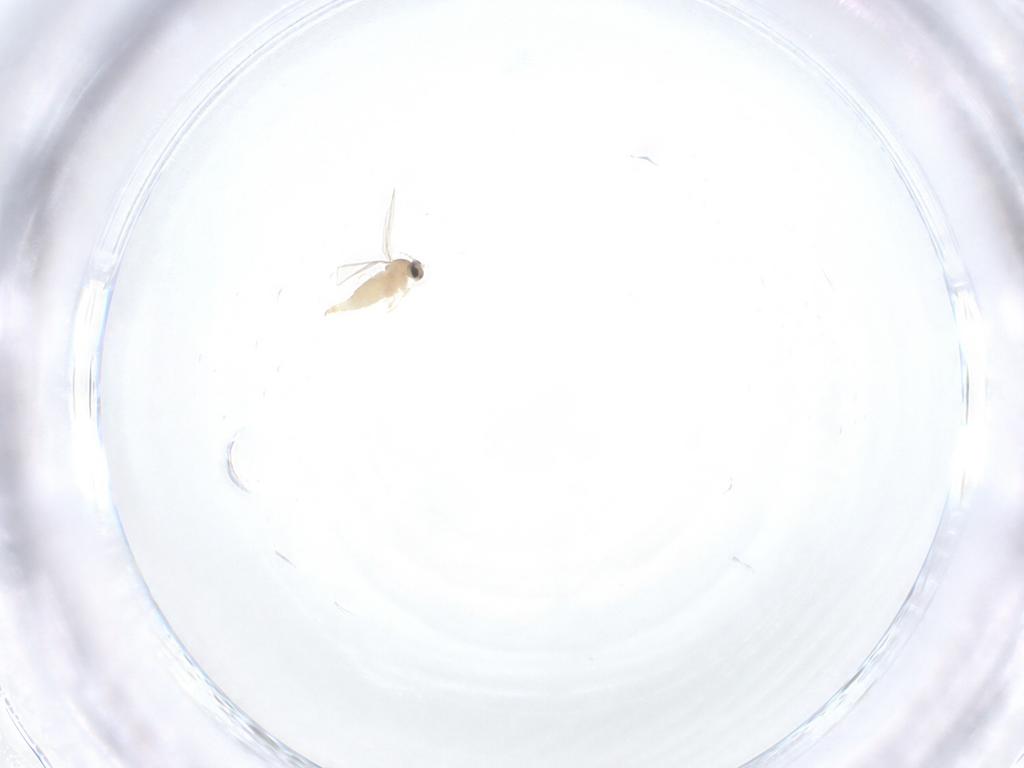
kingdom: Animalia
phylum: Arthropoda
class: Insecta
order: Diptera
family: Cecidomyiidae
